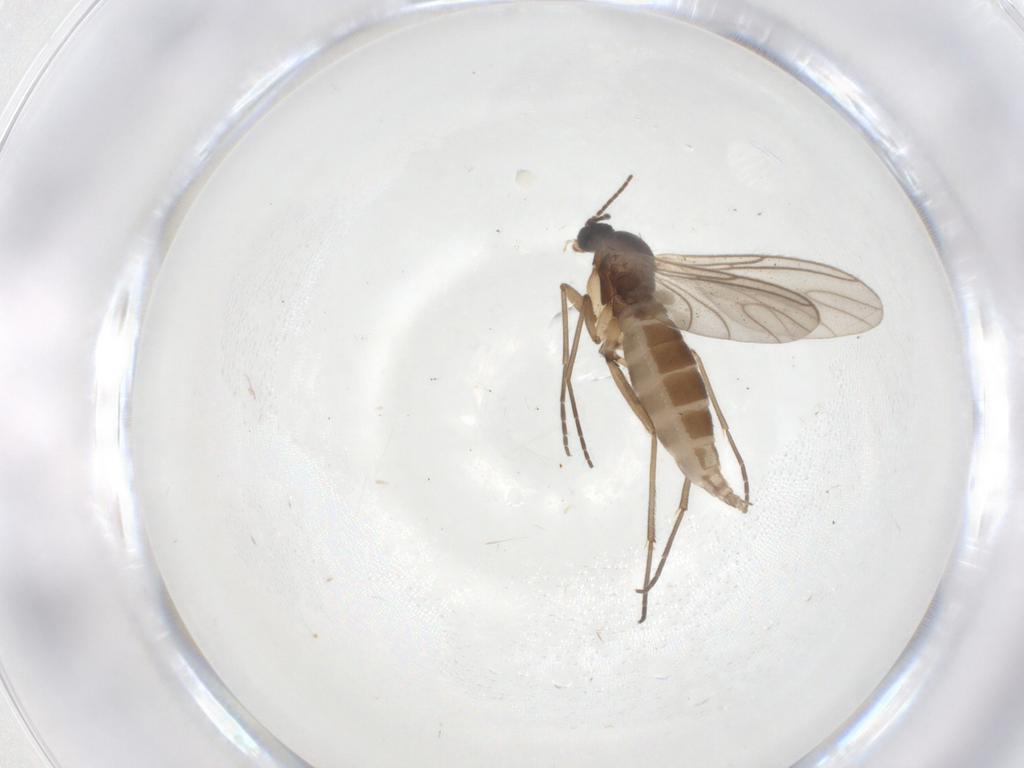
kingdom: Animalia
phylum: Arthropoda
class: Insecta
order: Diptera
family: Sciaridae
